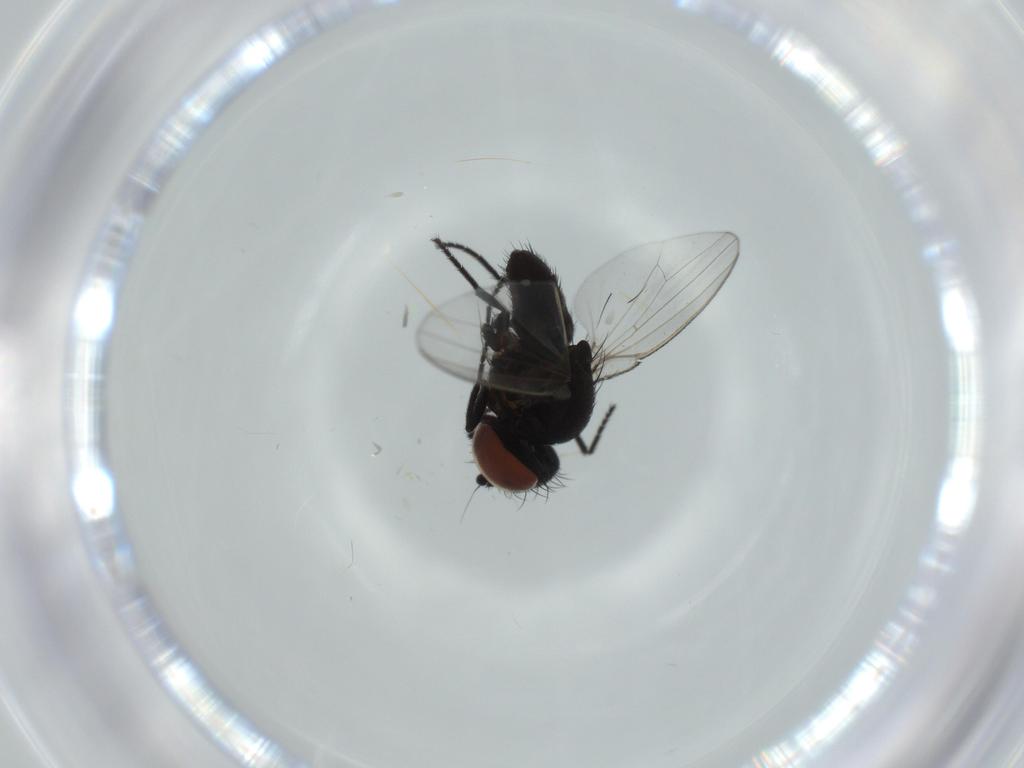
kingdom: Animalia
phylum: Arthropoda
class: Insecta
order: Diptera
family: Milichiidae
